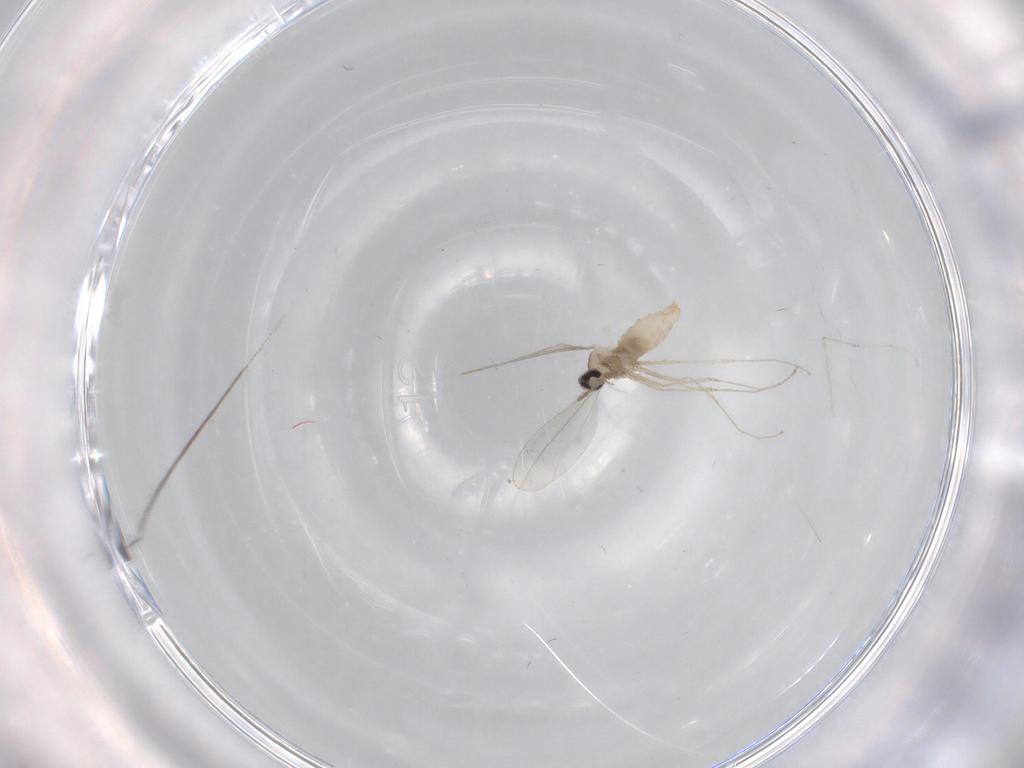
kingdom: Animalia
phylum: Arthropoda
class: Insecta
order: Diptera
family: Cecidomyiidae
